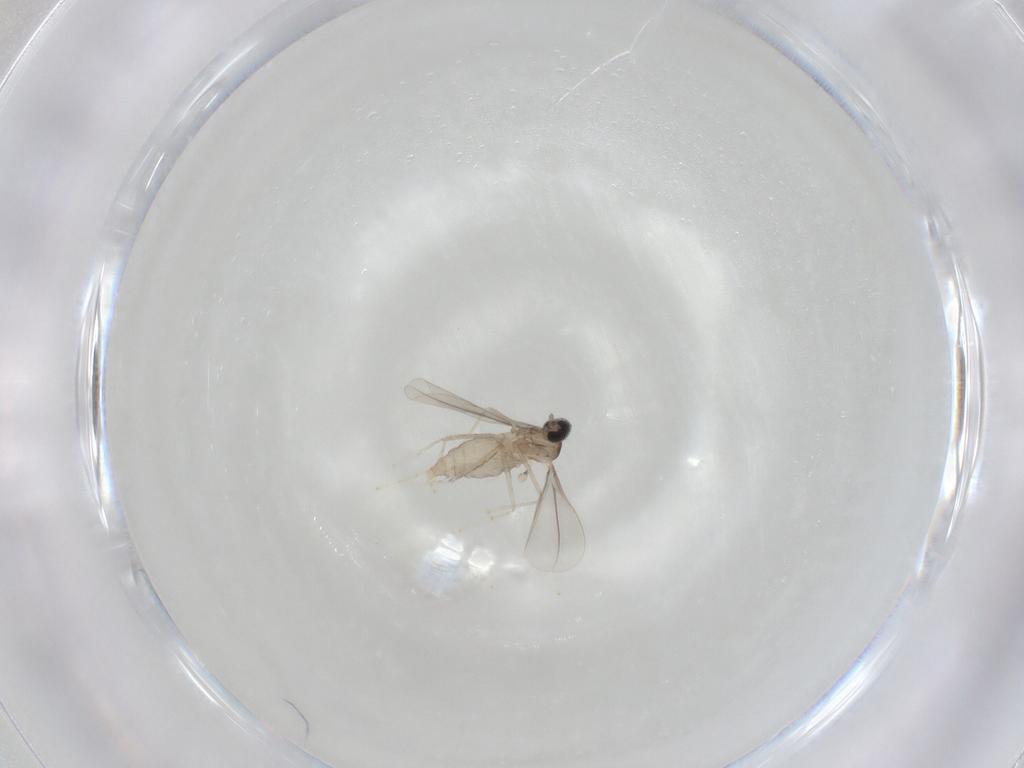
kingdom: Animalia
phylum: Arthropoda
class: Insecta
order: Diptera
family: Cecidomyiidae
